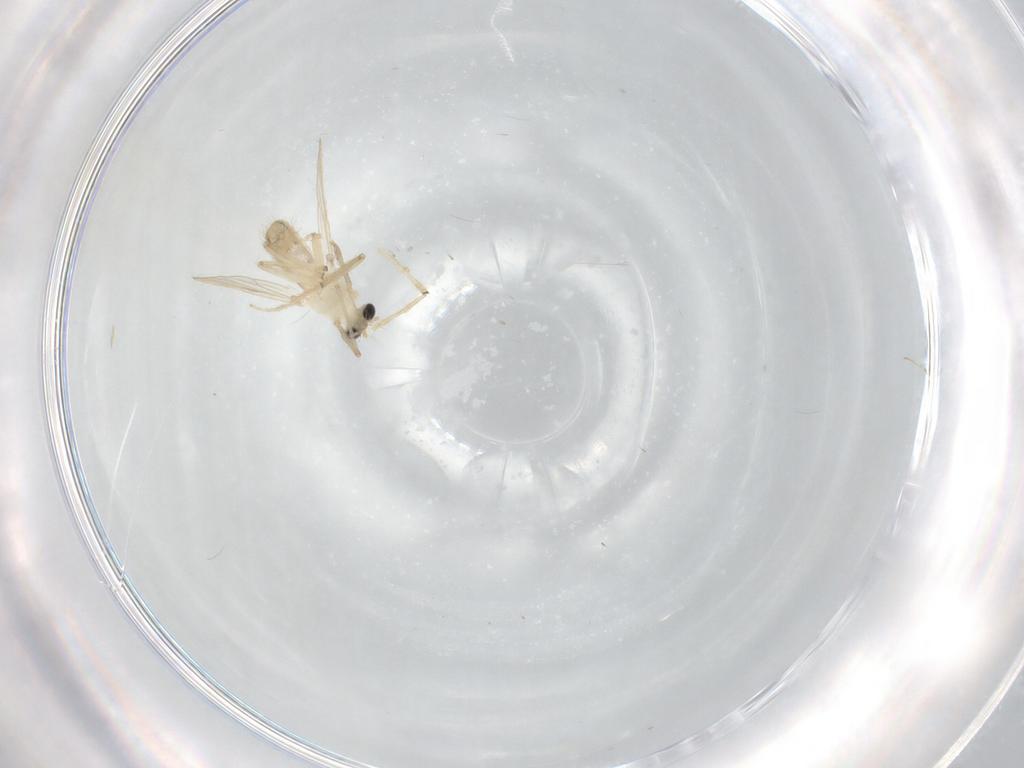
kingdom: Animalia
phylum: Arthropoda
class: Insecta
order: Diptera
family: Chironomidae
